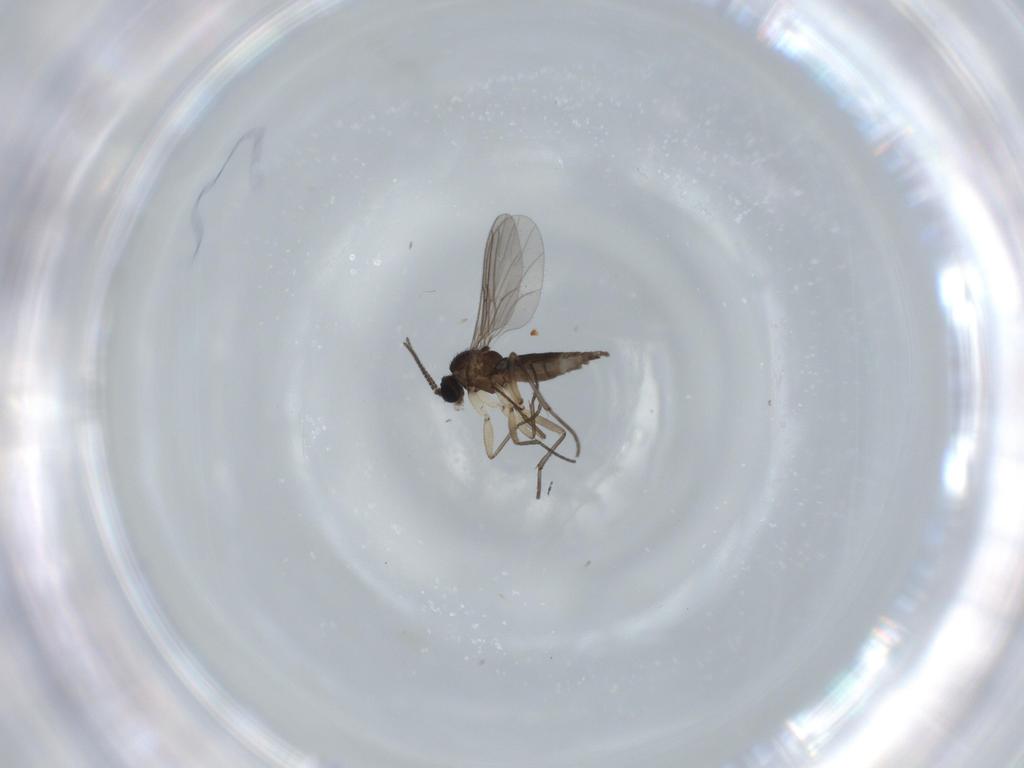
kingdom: Animalia
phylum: Arthropoda
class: Insecta
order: Diptera
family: Sciaridae
